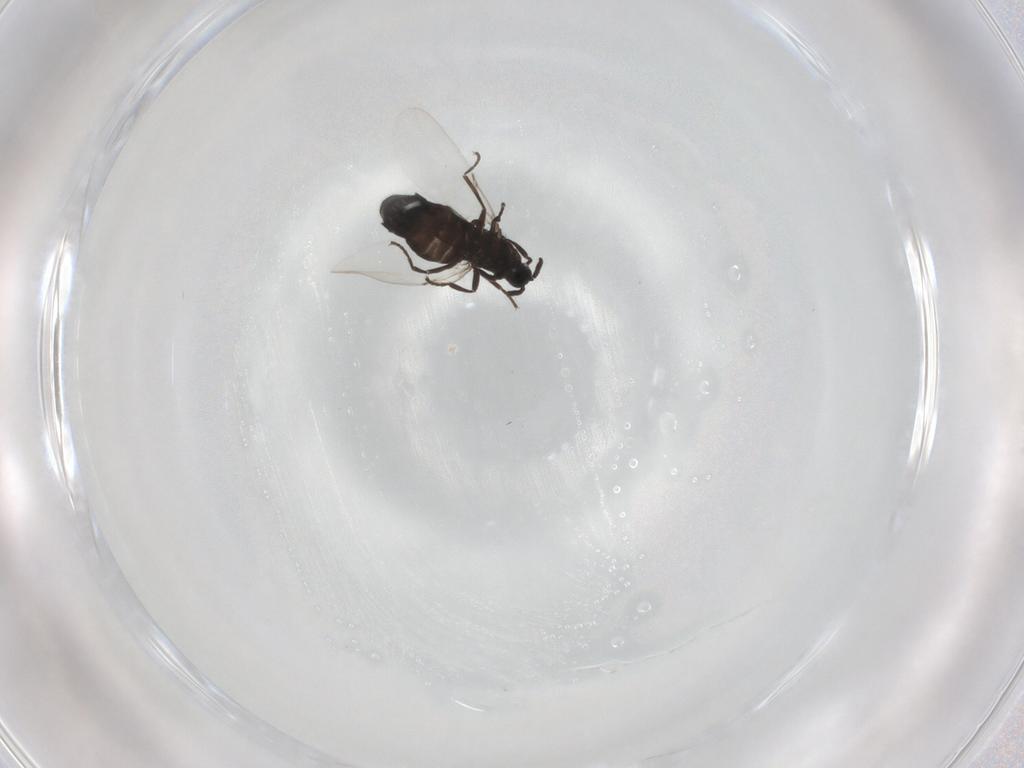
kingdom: Animalia
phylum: Arthropoda
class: Insecta
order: Diptera
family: Scatopsidae
